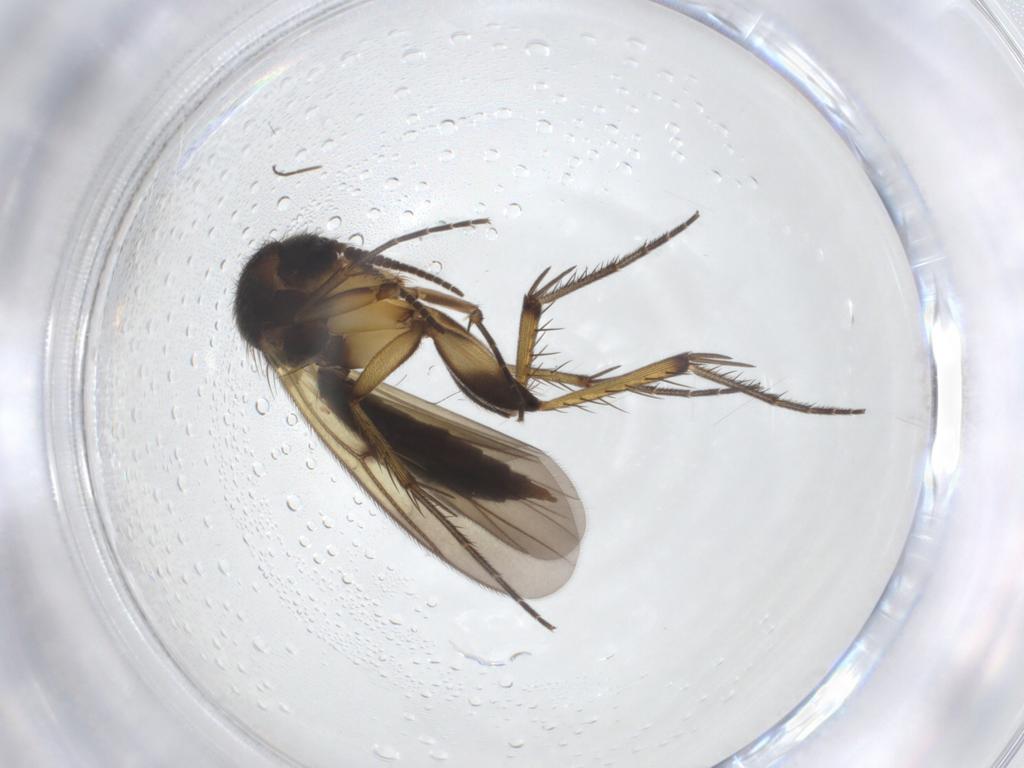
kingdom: Animalia
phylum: Arthropoda
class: Insecta
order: Diptera
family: Mycetophilidae
